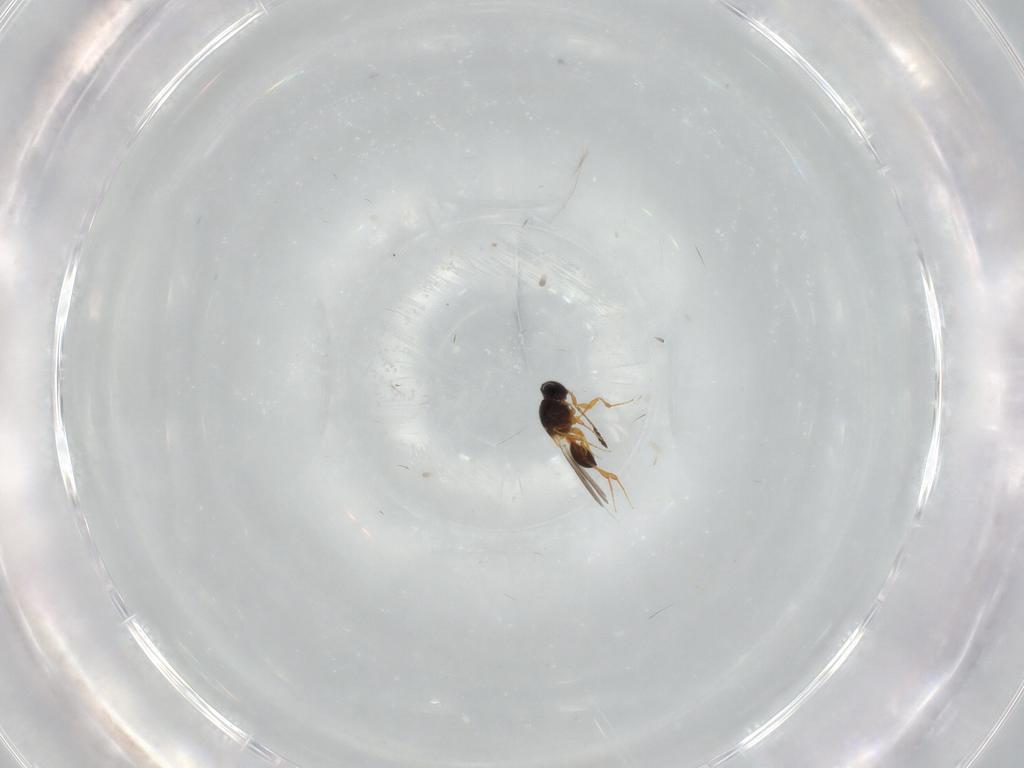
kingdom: Animalia
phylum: Arthropoda
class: Insecta
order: Hymenoptera
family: Platygastridae
